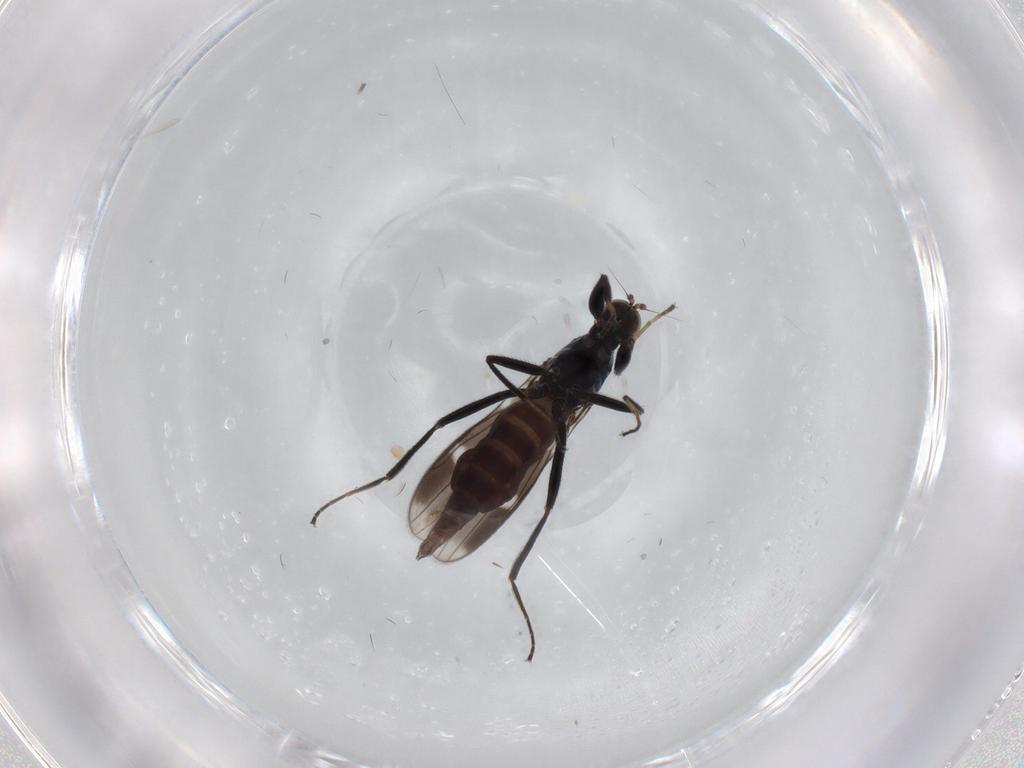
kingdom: Animalia
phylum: Arthropoda
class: Insecta
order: Diptera
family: Hybotidae
